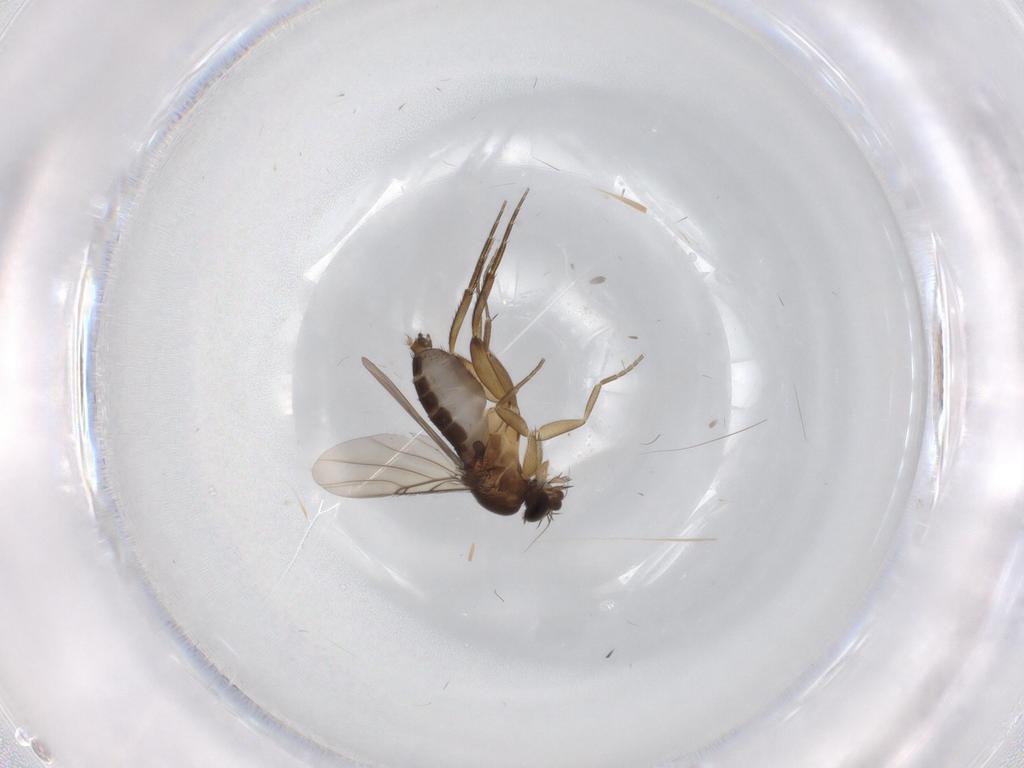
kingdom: Animalia
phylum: Arthropoda
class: Insecta
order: Diptera
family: Phoridae
